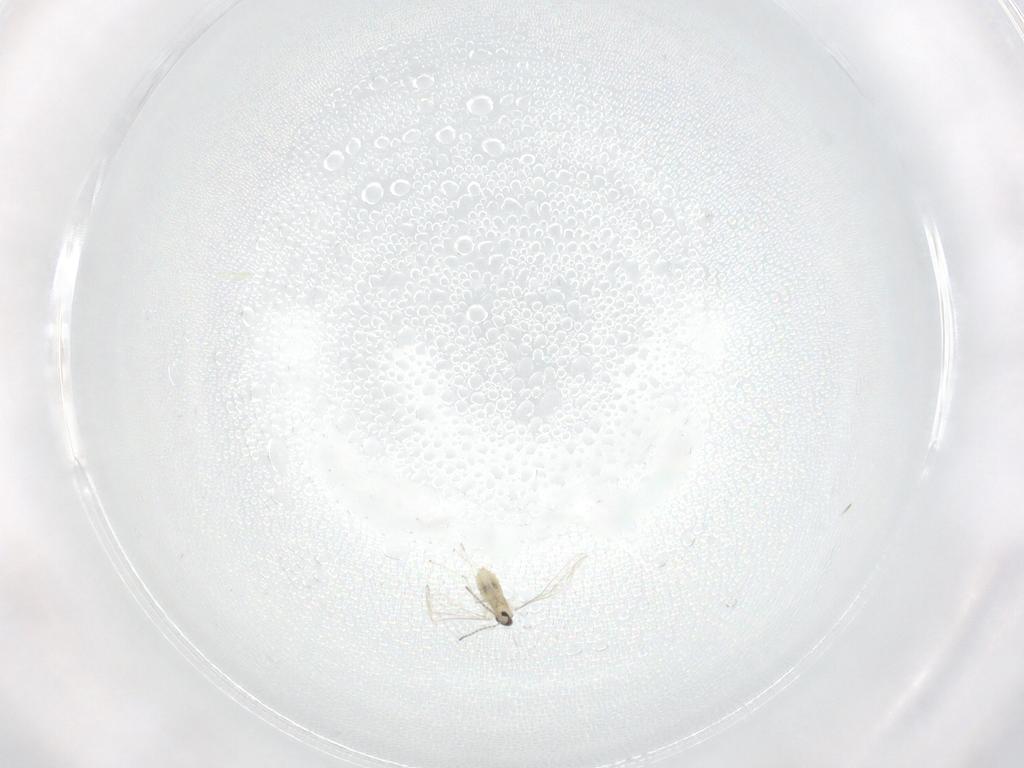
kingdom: Animalia
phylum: Arthropoda
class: Insecta
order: Diptera
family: Cecidomyiidae
